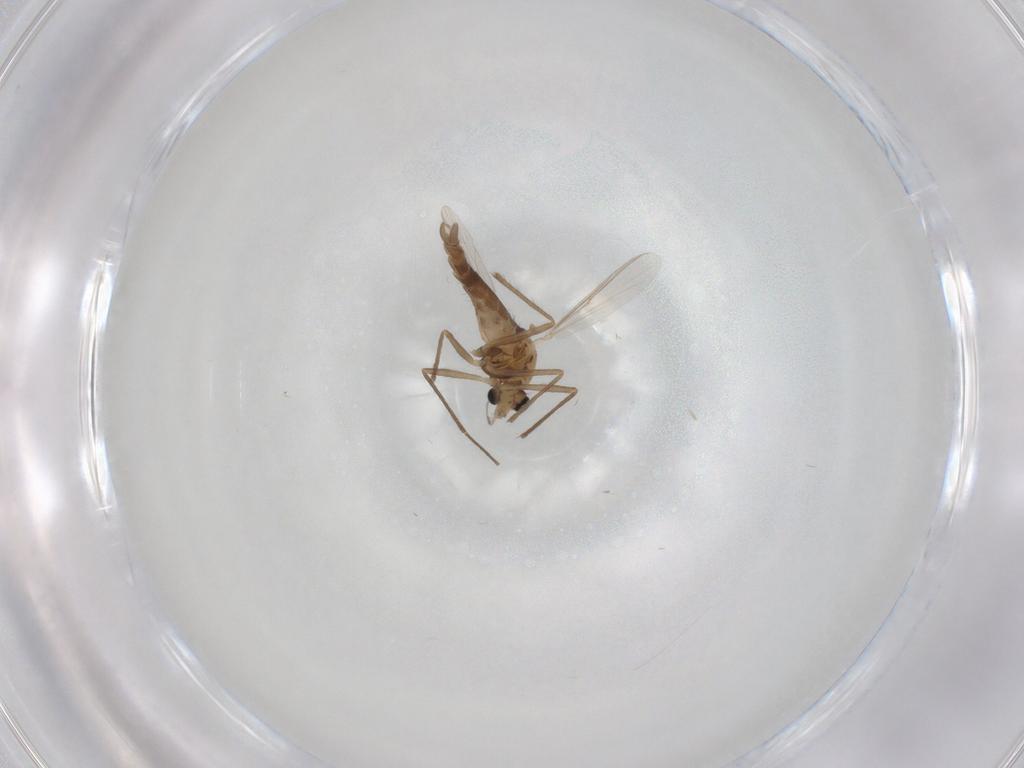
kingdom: Animalia
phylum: Arthropoda
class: Insecta
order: Diptera
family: Chironomidae
